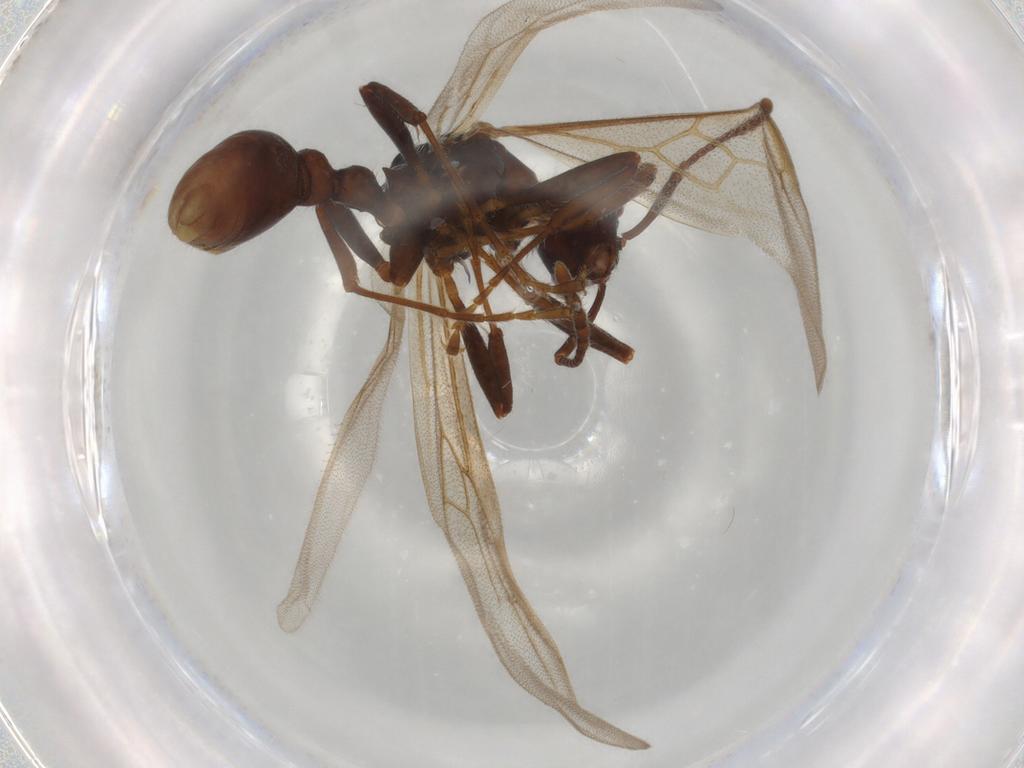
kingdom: Animalia
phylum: Arthropoda
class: Insecta
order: Hymenoptera
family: Formicidae
